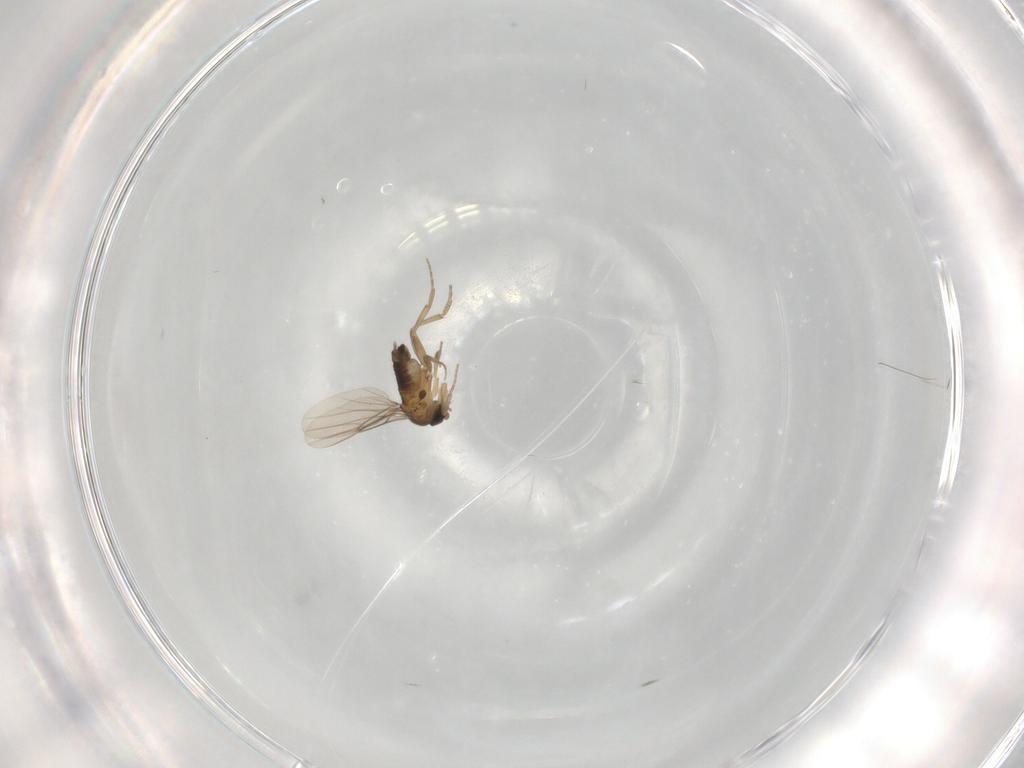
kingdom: Animalia
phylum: Arthropoda
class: Insecta
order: Diptera
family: Phoridae
